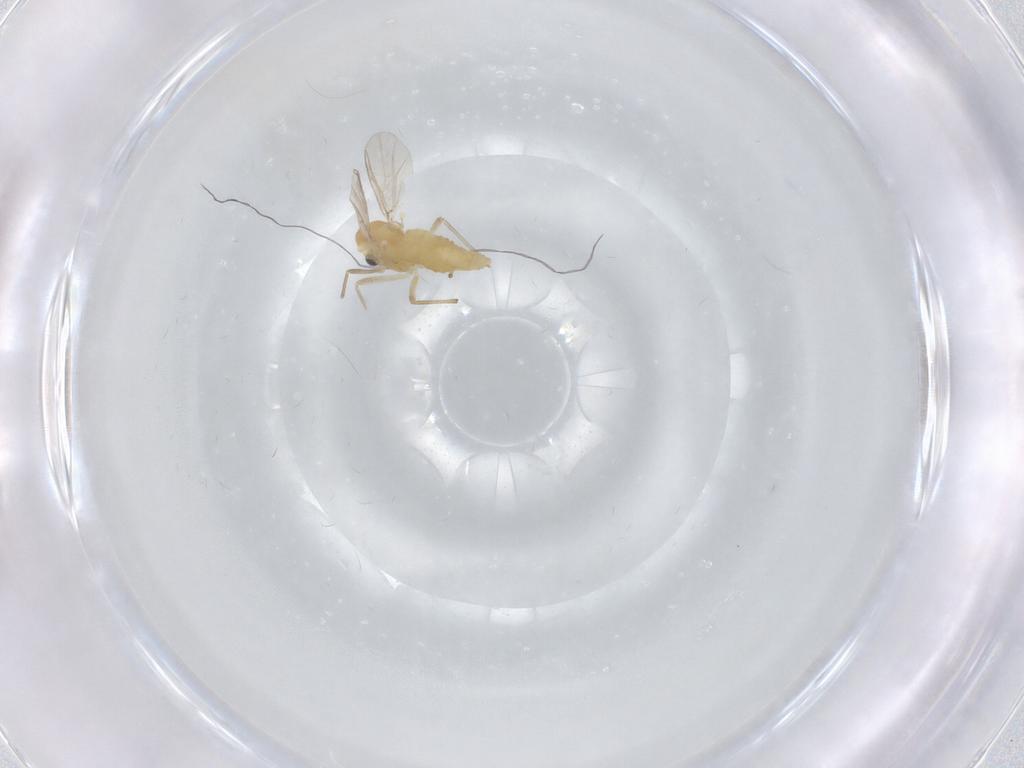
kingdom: Animalia
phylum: Arthropoda
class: Insecta
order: Diptera
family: Chironomidae
